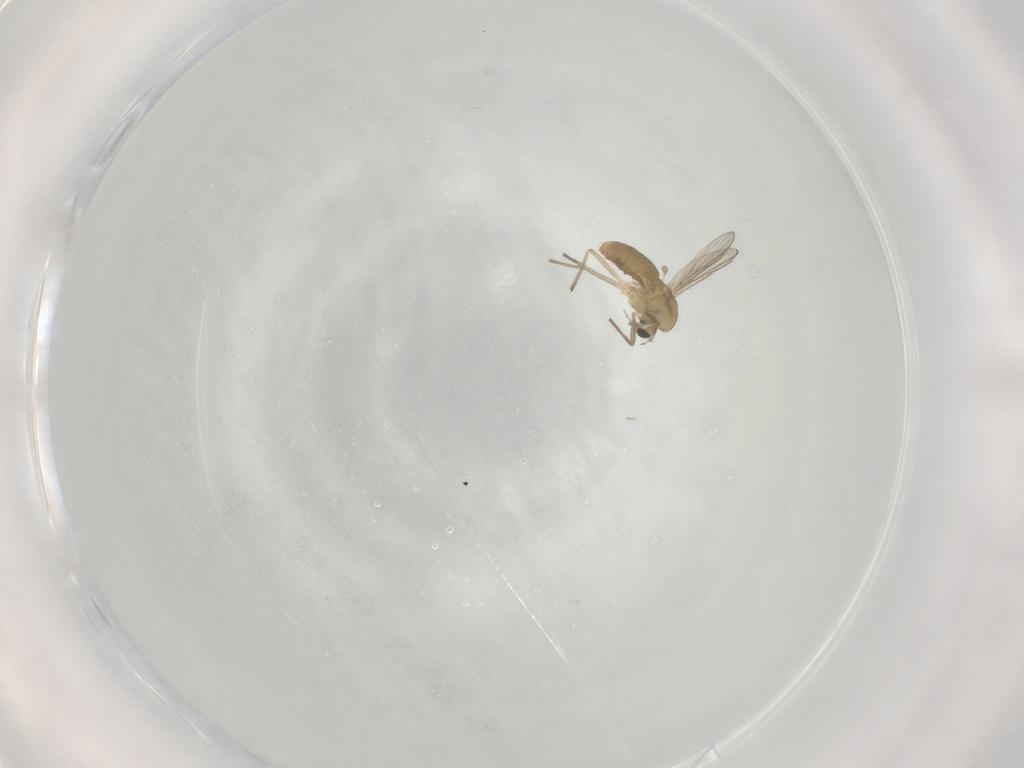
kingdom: Animalia
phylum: Arthropoda
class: Insecta
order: Diptera
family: Chironomidae
